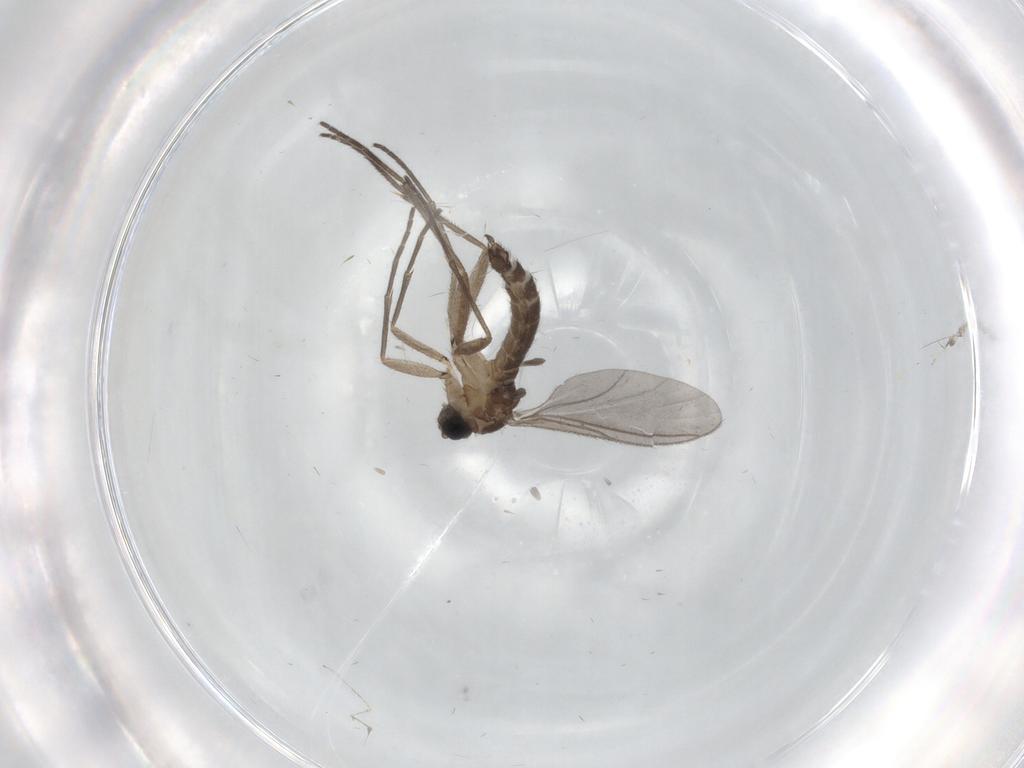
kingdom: Animalia
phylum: Arthropoda
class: Insecta
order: Diptera
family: Sciaridae
